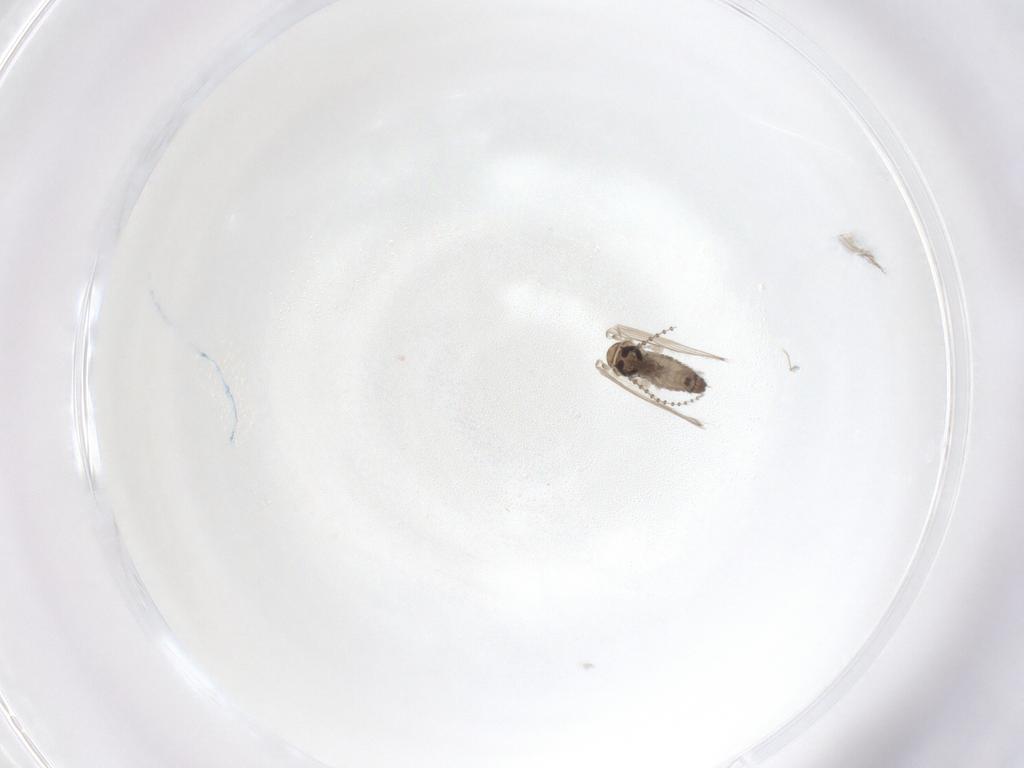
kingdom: Animalia
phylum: Arthropoda
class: Insecta
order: Diptera
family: Psychodidae
